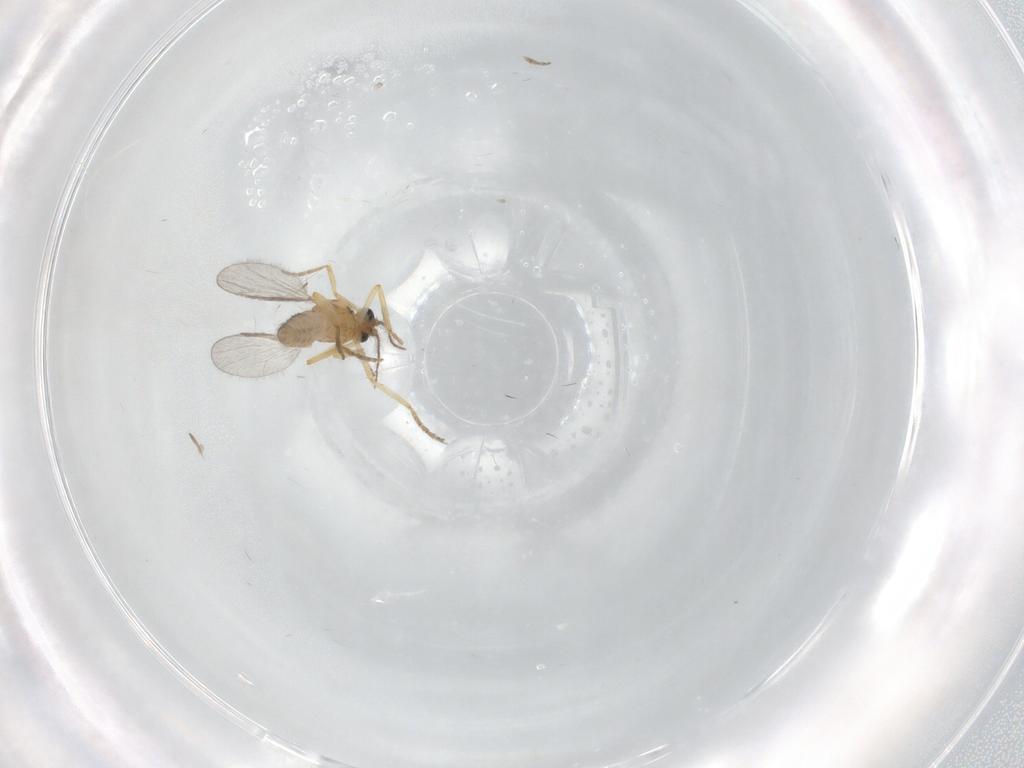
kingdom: Animalia
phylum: Arthropoda
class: Insecta
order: Diptera
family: Ceratopogonidae
